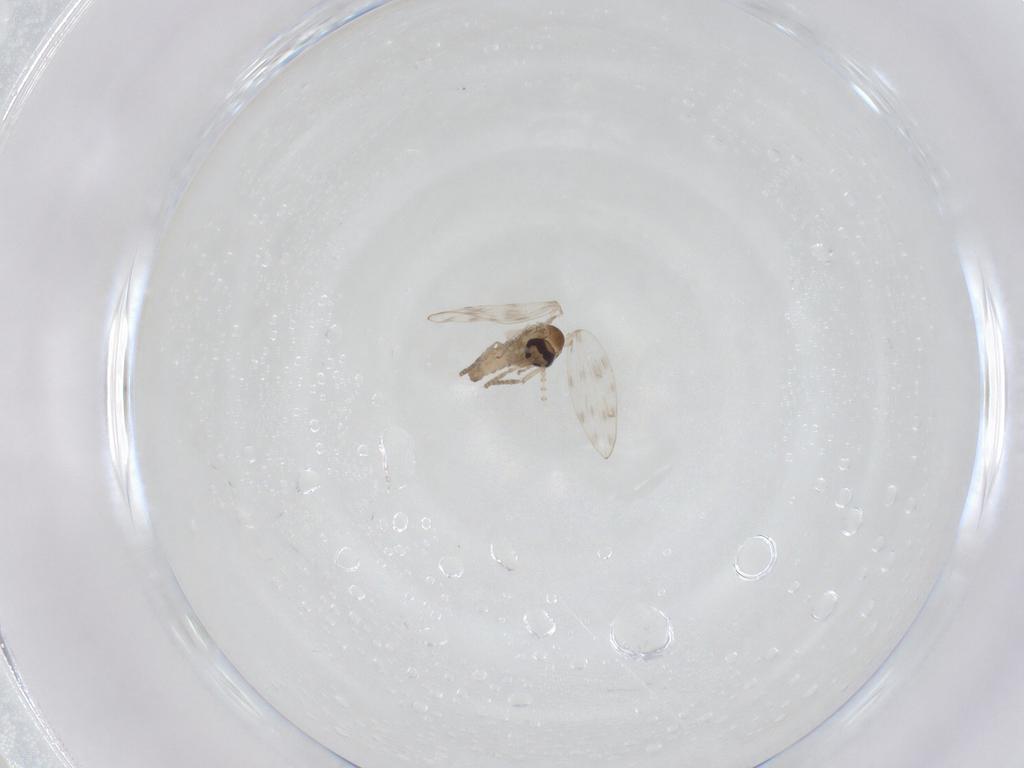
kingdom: Animalia
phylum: Arthropoda
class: Insecta
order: Diptera
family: Psychodidae
